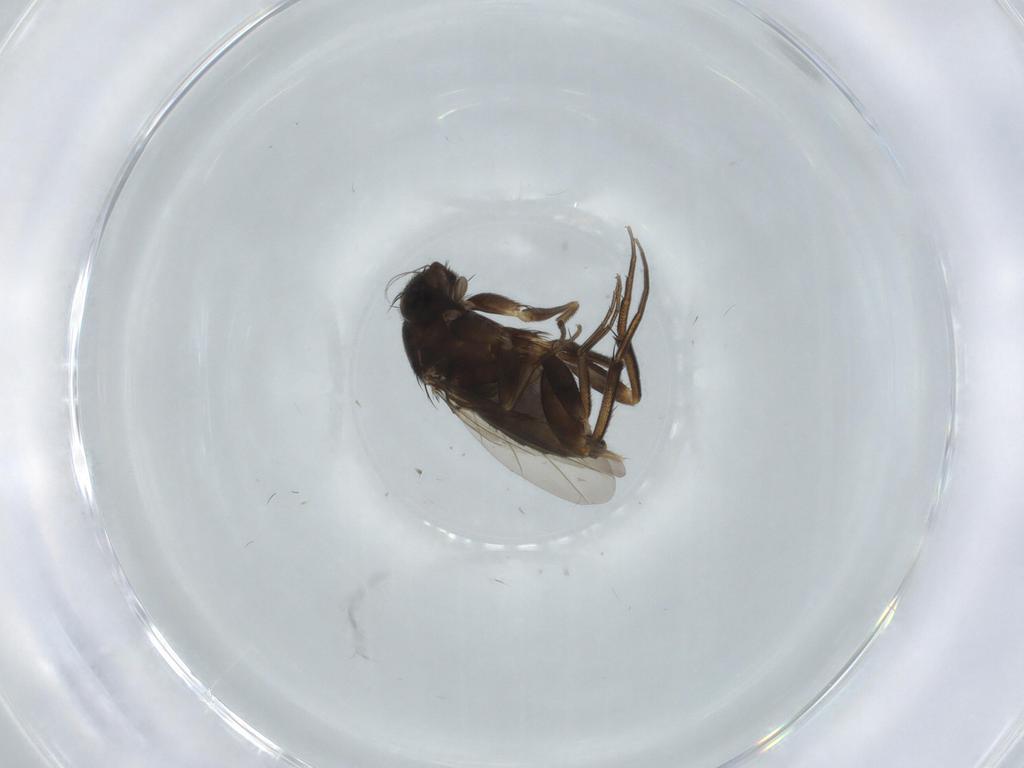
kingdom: Animalia
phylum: Arthropoda
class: Insecta
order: Diptera
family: Phoridae
